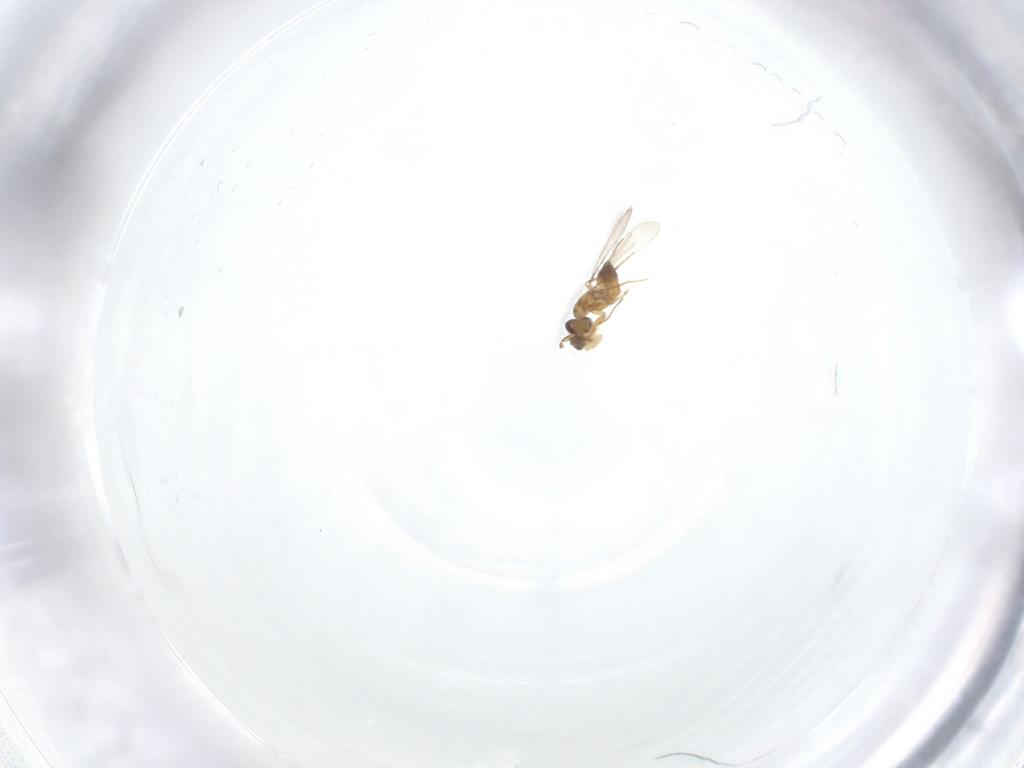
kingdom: Animalia
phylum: Arthropoda
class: Insecta
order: Hymenoptera
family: Mymaridae
